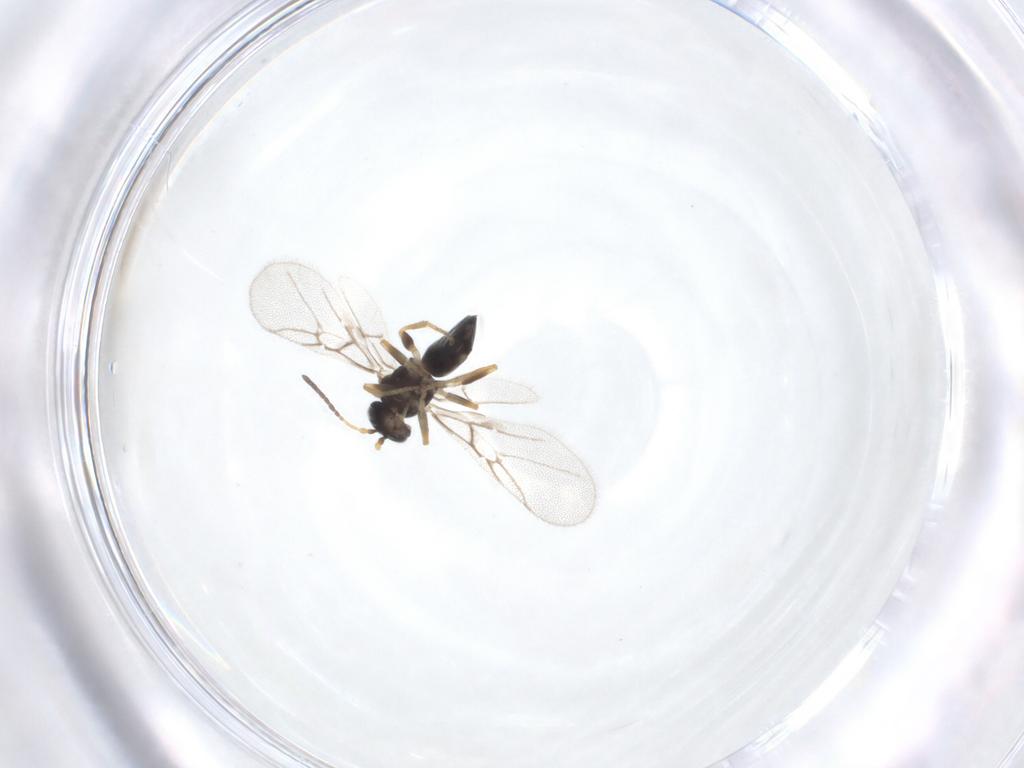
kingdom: Animalia
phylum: Arthropoda
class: Insecta
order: Hymenoptera
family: Cynipidae
